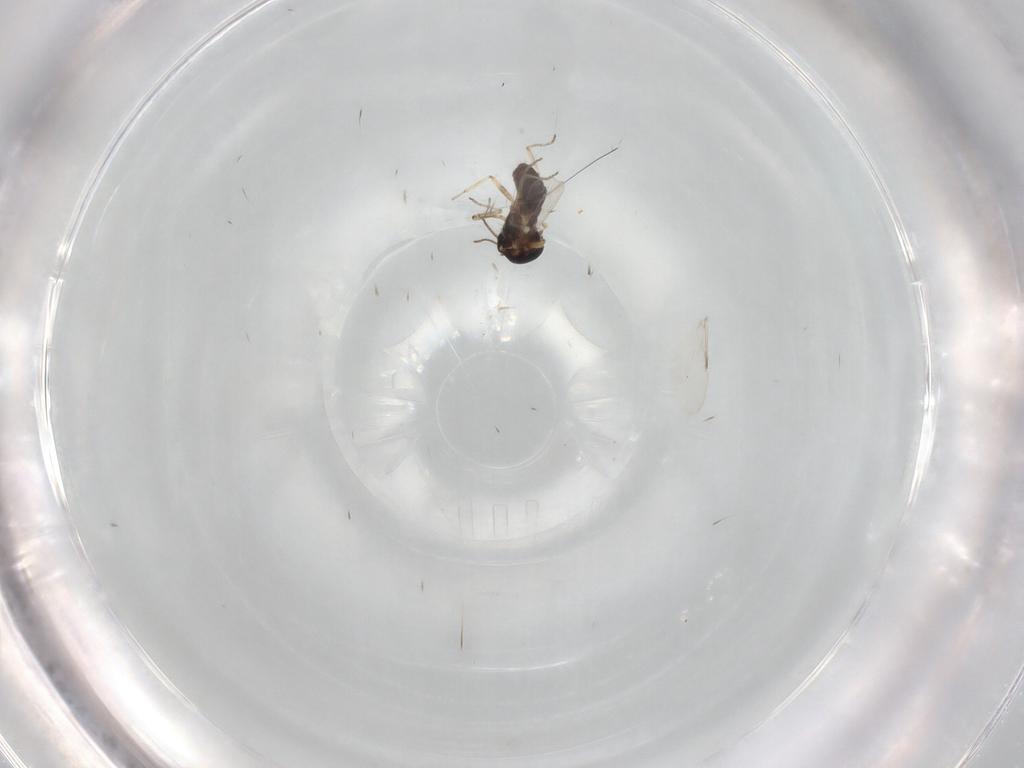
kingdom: Animalia
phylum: Arthropoda
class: Insecta
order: Diptera
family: Ceratopogonidae
